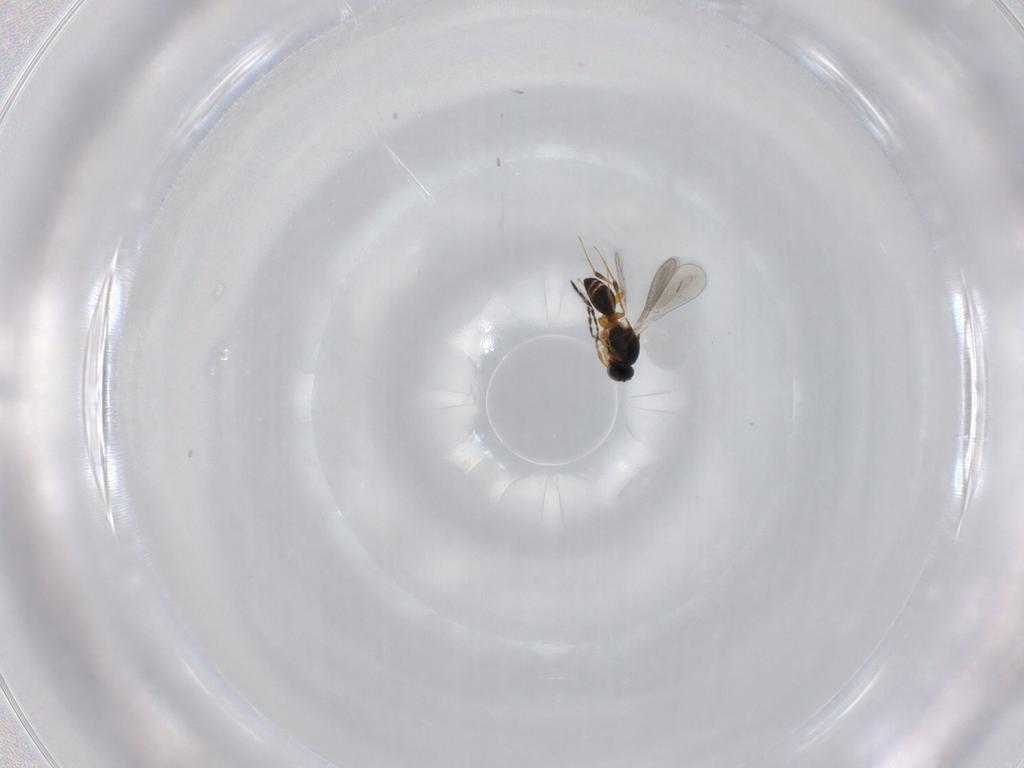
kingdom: Animalia
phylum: Arthropoda
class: Insecta
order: Hymenoptera
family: Platygastridae
